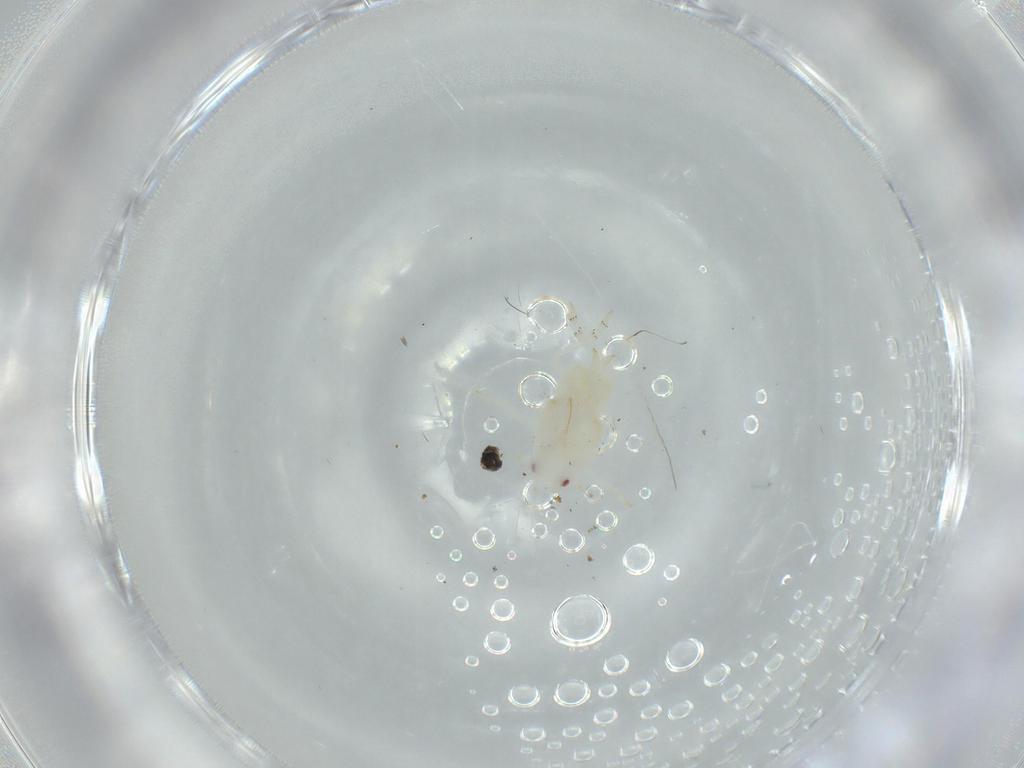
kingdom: Animalia
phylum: Arthropoda
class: Insecta
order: Hemiptera
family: Flatidae
